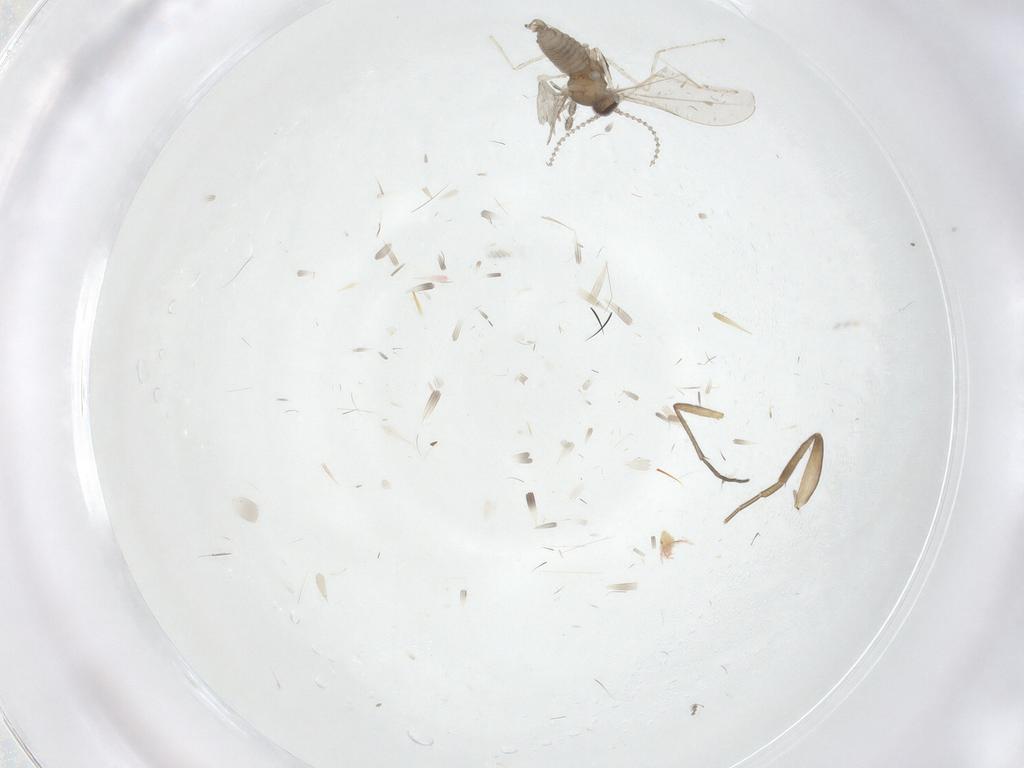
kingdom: Animalia
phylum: Arthropoda
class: Insecta
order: Diptera
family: Limoniidae
